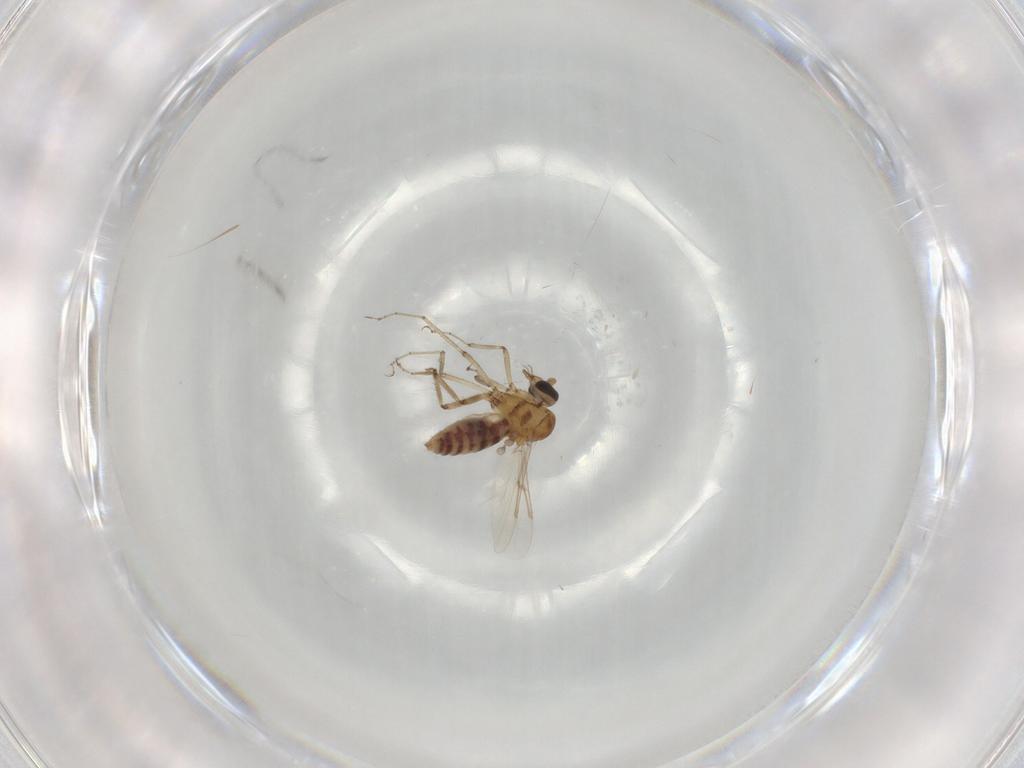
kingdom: Animalia
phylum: Arthropoda
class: Insecta
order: Diptera
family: Ceratopogonidae
